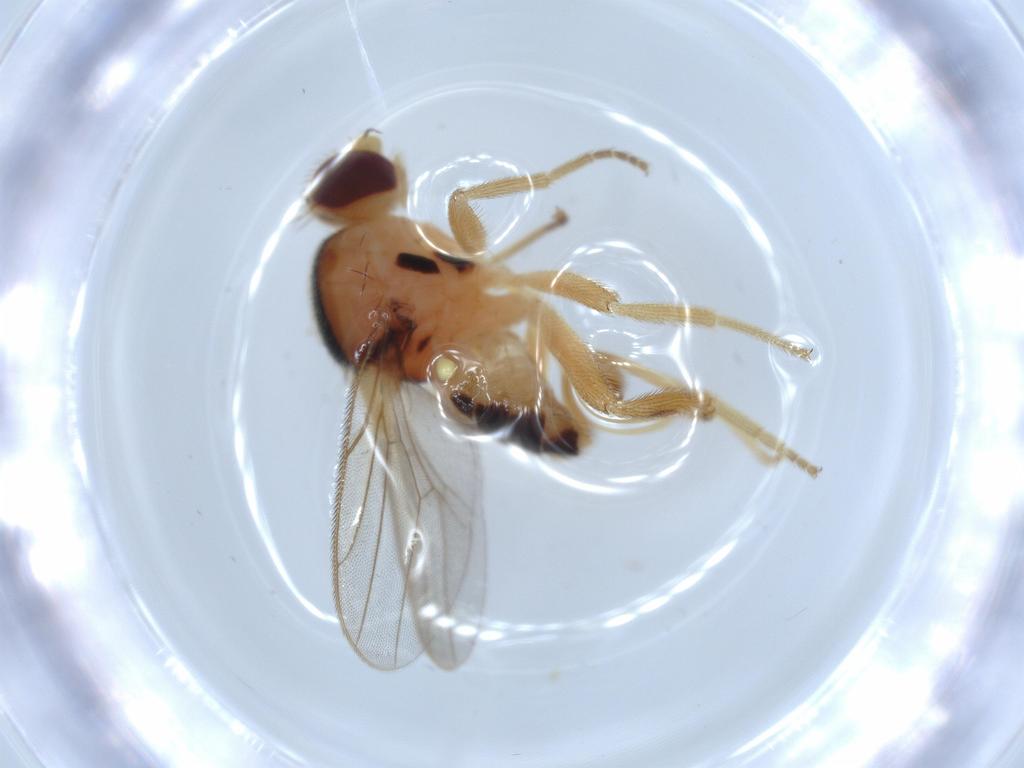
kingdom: Animalia
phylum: Arthropoda
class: Insecta
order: Diptera
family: Chloropidae
